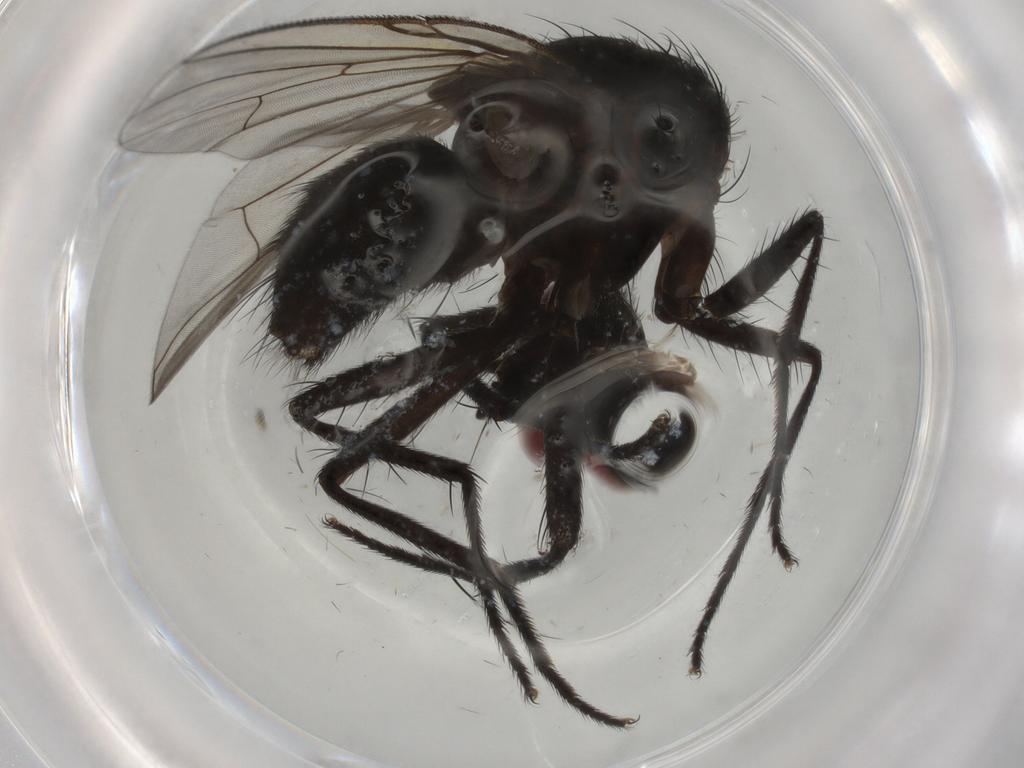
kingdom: Animalia
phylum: Arthropoda
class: Insecta
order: Diptera
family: Muscidae
